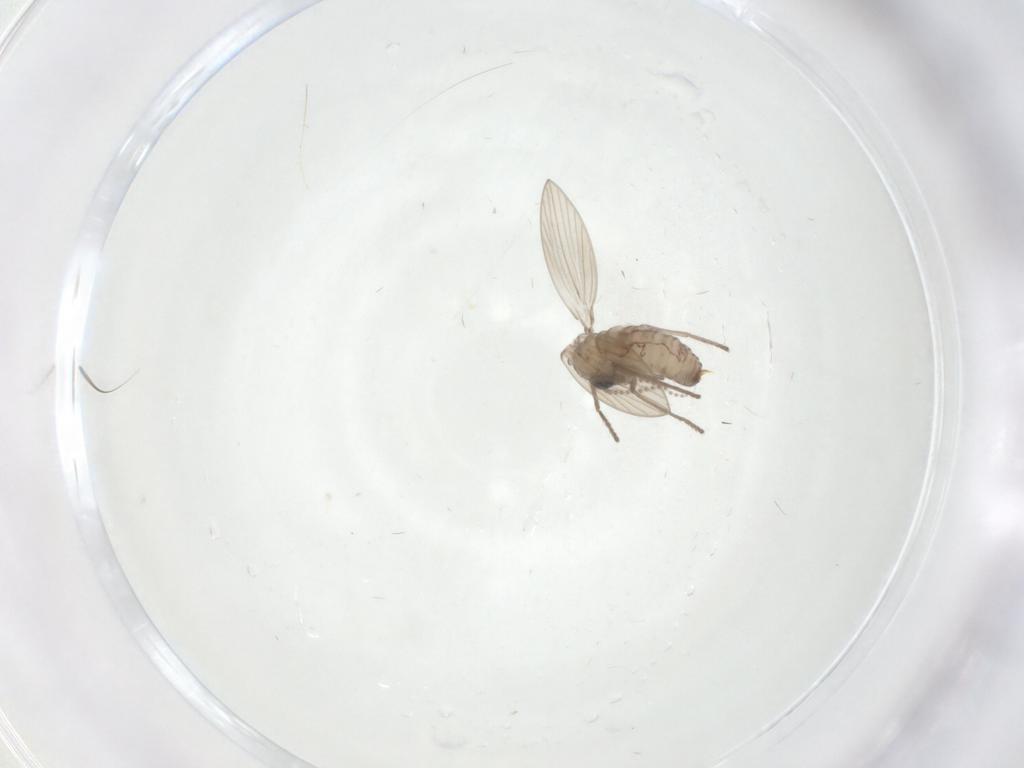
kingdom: Animalia
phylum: Arthropoda
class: Insecta
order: Diptera
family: Psychodidae
